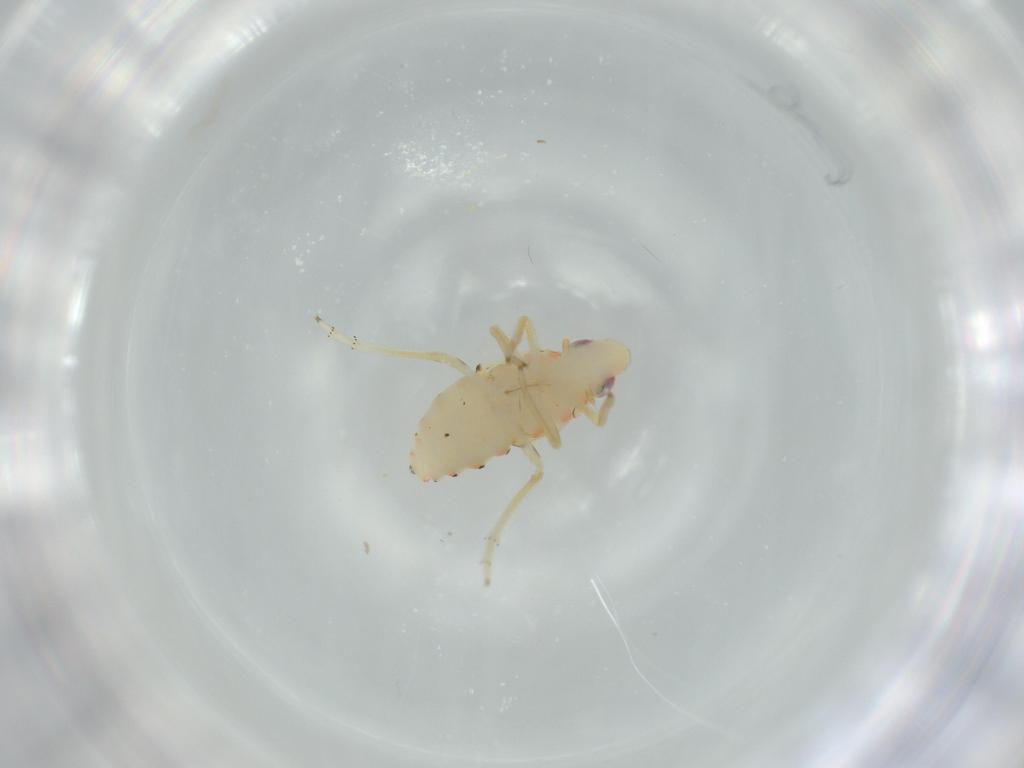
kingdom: Animalia
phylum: Arthropoda
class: Insecta
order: Hemiptera
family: Tropiduchidae
